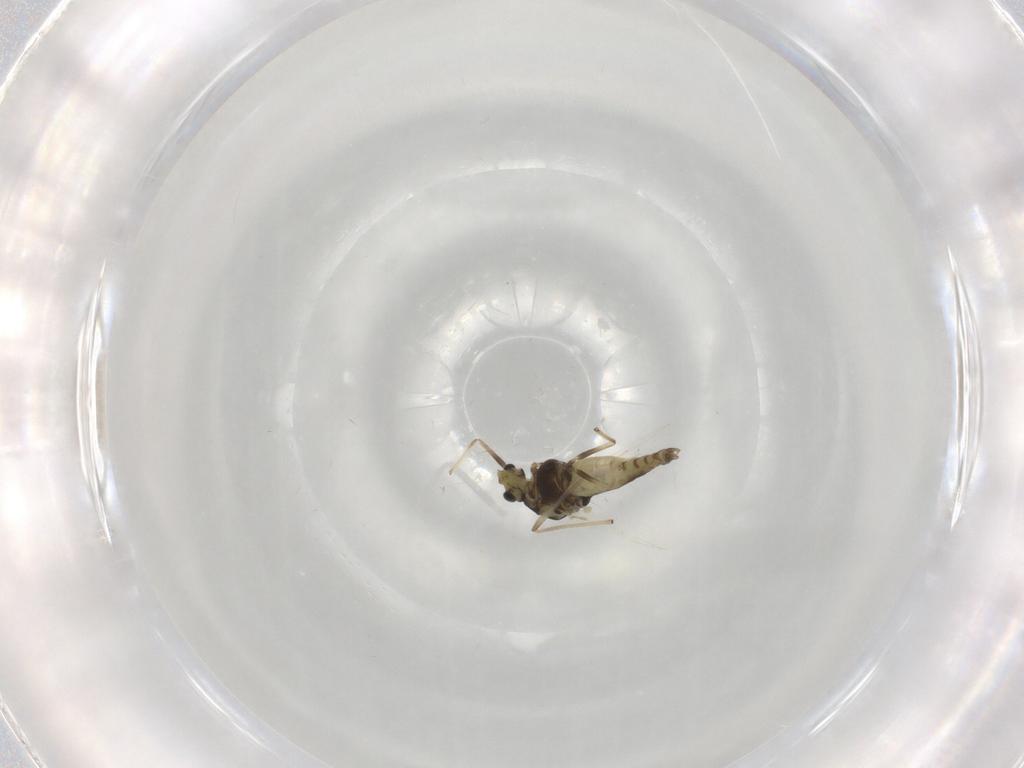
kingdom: Animalia
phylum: Arthropoda
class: Insecta
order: Diptera
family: Chironomidae
